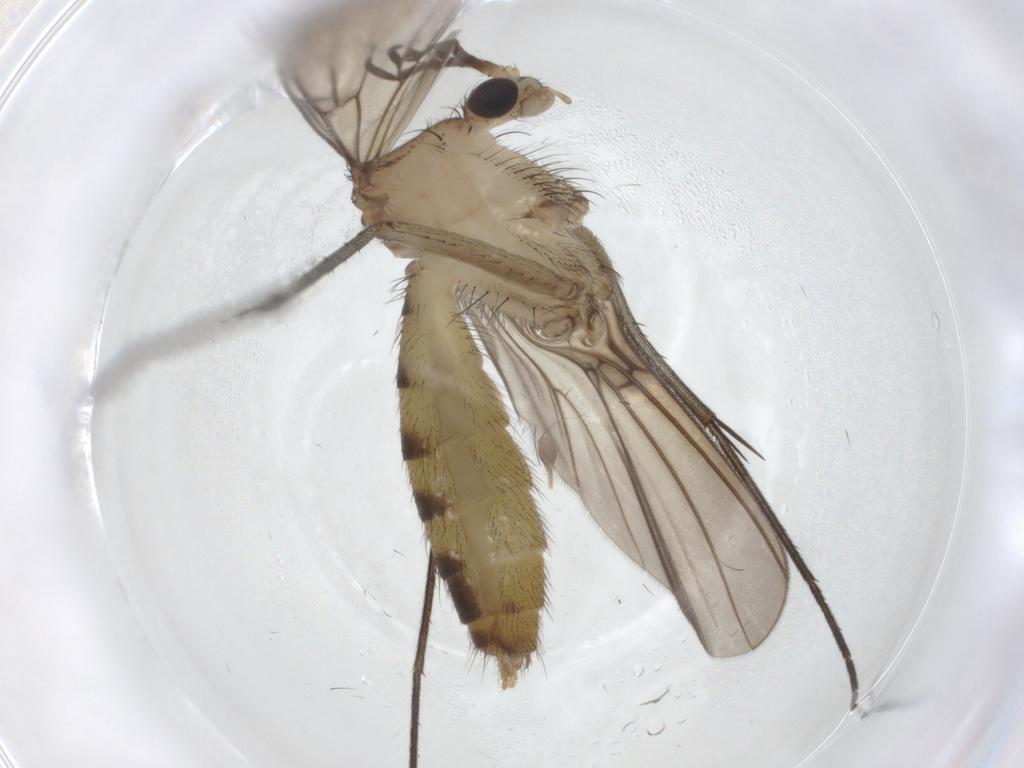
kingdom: Animalia
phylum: Arthropoda
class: Insecta
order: Diptera
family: Mycetophilidae
